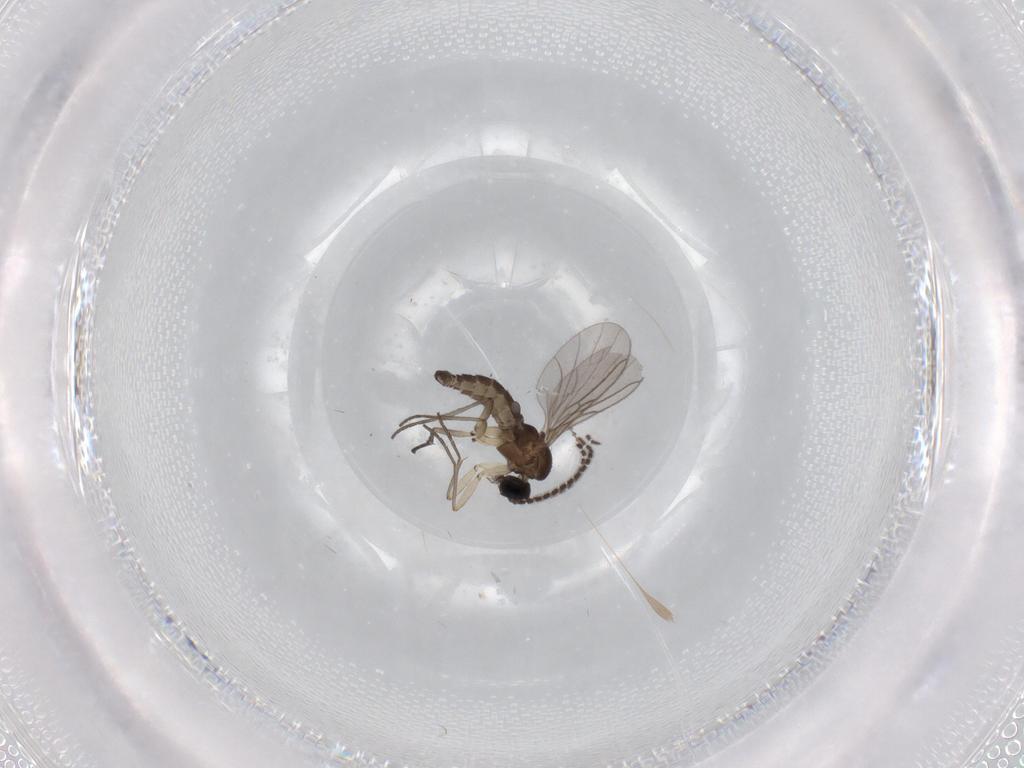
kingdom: Animalia
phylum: Arthropoda
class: Insecta
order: Diptera
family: Sciaridae
